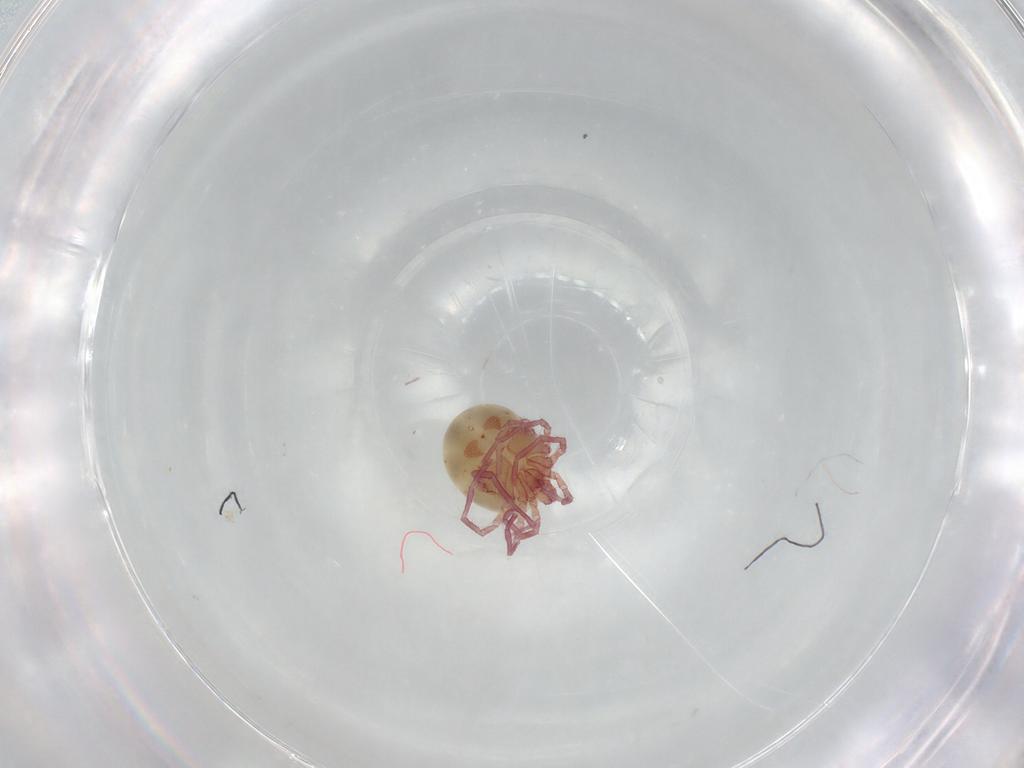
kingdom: Animalia
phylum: Arthropoda
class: Arachnida
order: Trombidiformes
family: Pionidae
